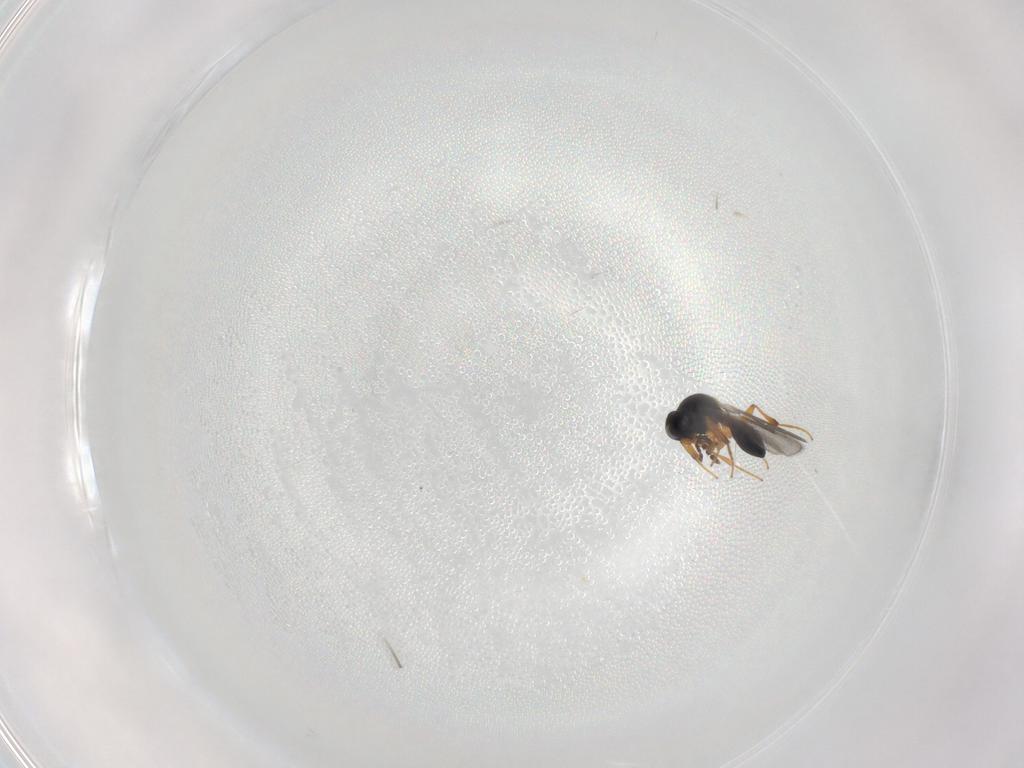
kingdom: Animalia
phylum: Arthropoda
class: Insecta
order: Hymenoptera
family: Platygastridae
